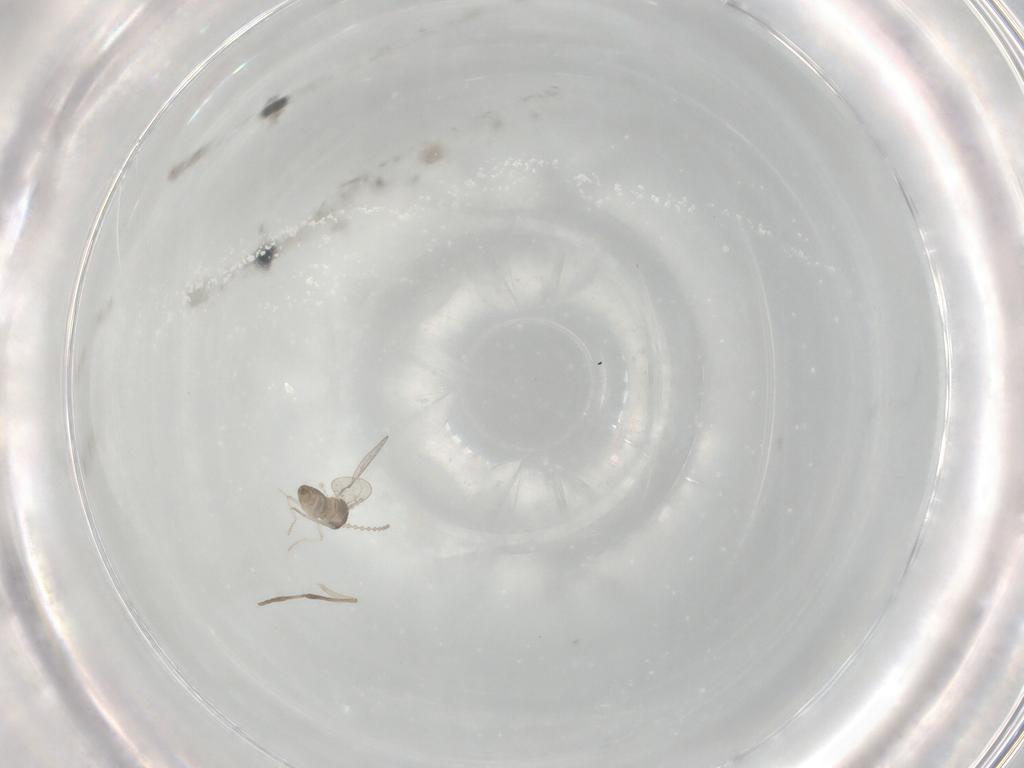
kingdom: Animalia
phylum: Arthropoda
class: Insecta
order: Diptera
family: Cecidomyiidae
